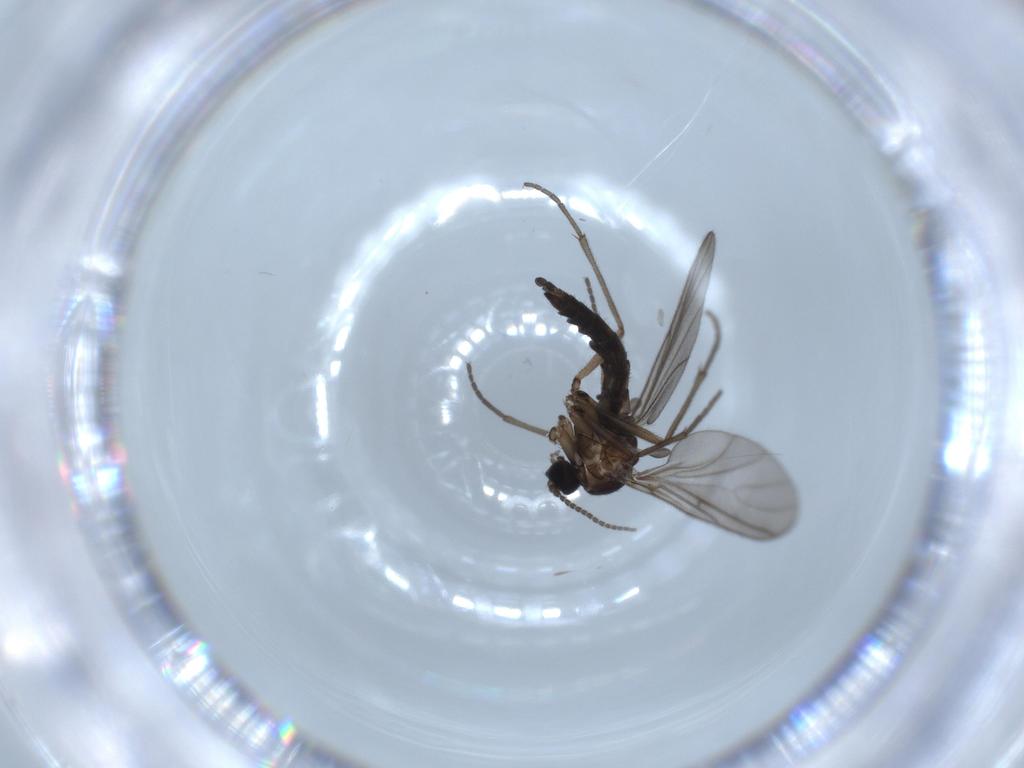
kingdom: Animalia
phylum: Arthropoda
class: Insecta
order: Diptera
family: Sciaridae
